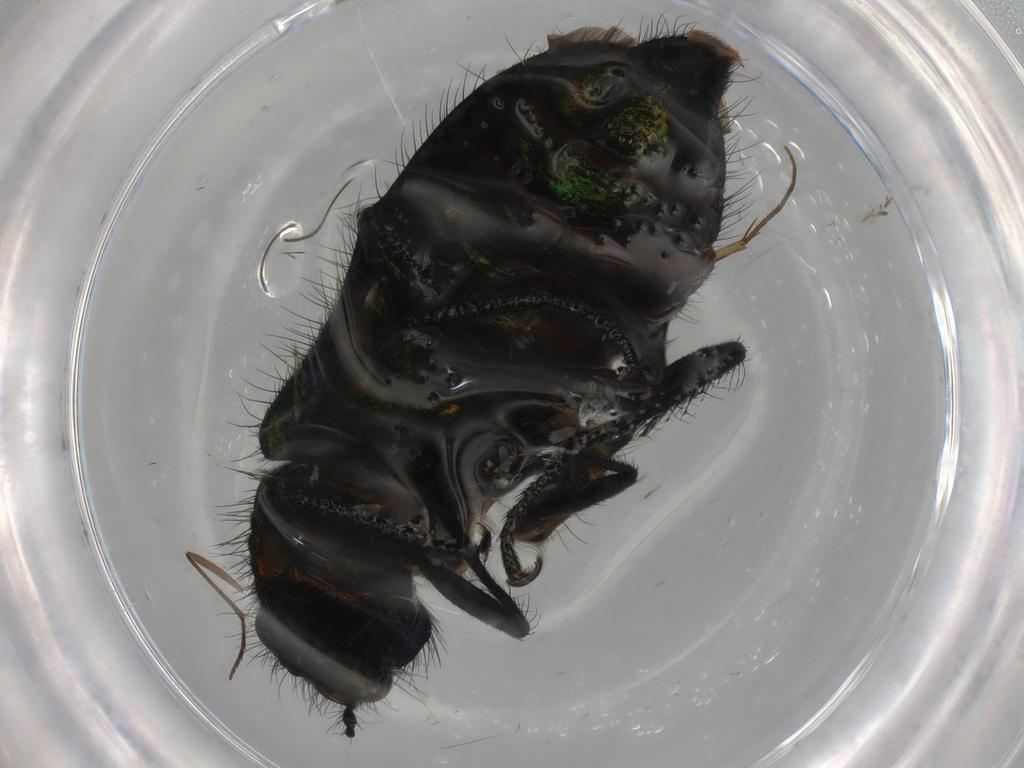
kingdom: Animalia
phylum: Arthropoda
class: Insecta
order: Coleoptera
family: Melyridae
